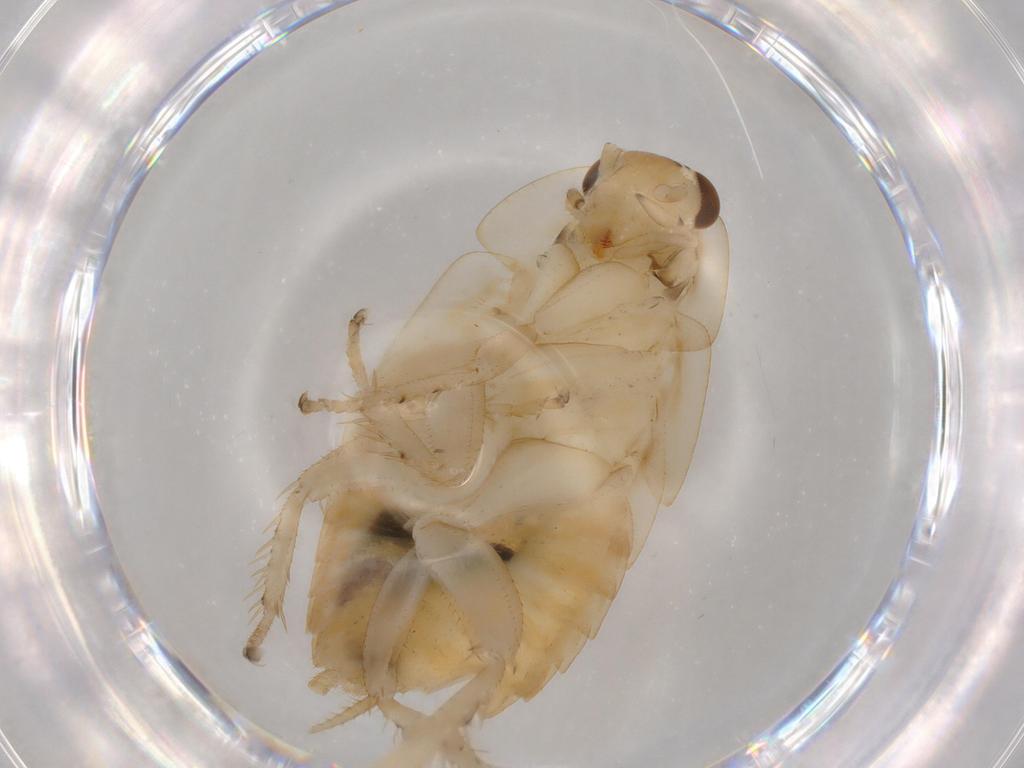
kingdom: Animalia
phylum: Arthropoda
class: Insecta
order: Blattodea
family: Ectobiidae
